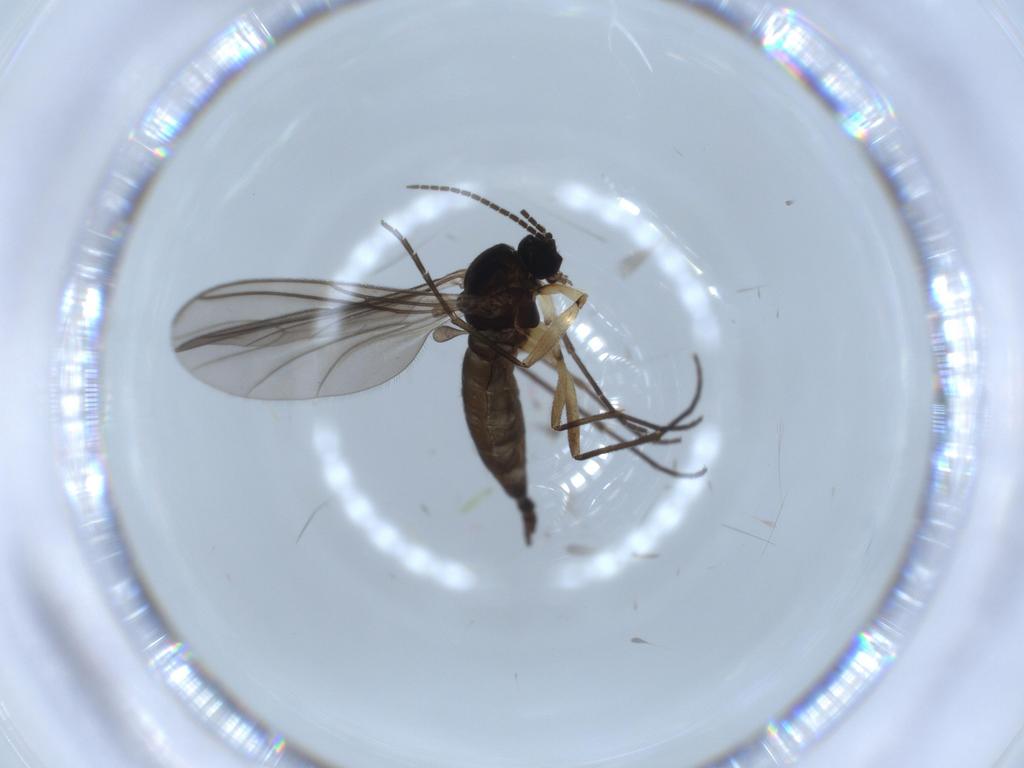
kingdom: Animalia
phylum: Arthropoda
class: Insecta
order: Diptera
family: Sciaridae
